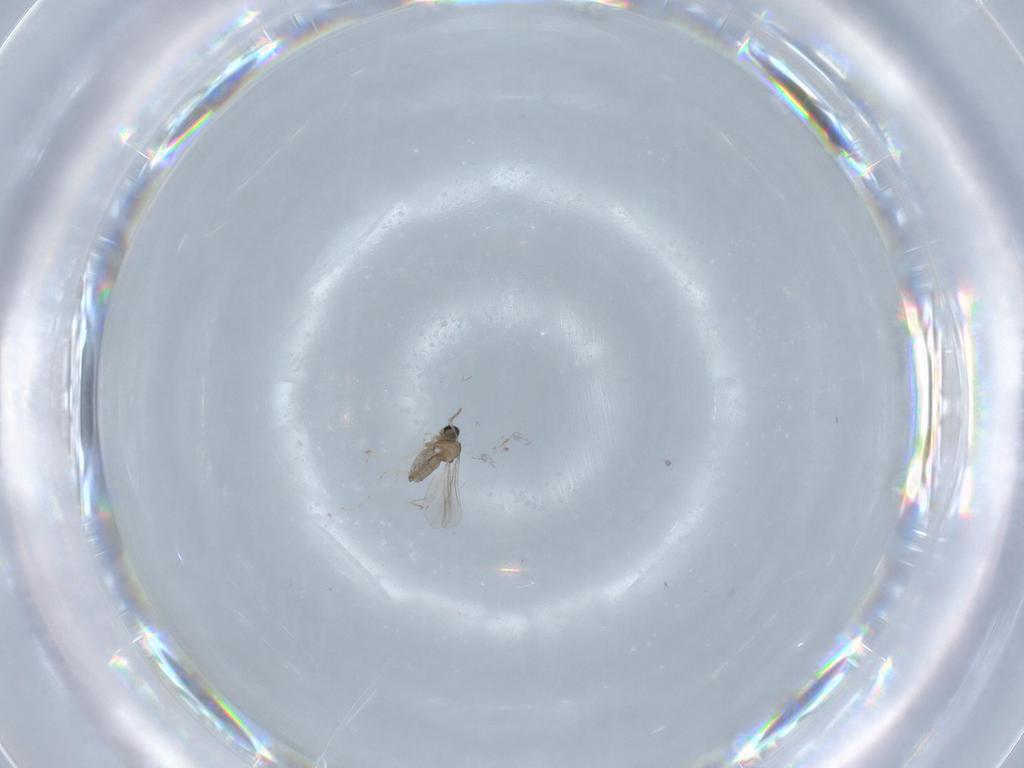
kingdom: Animalia
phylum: Arthropoda
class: Insecta
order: Diptera
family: Cecidomyiidae
